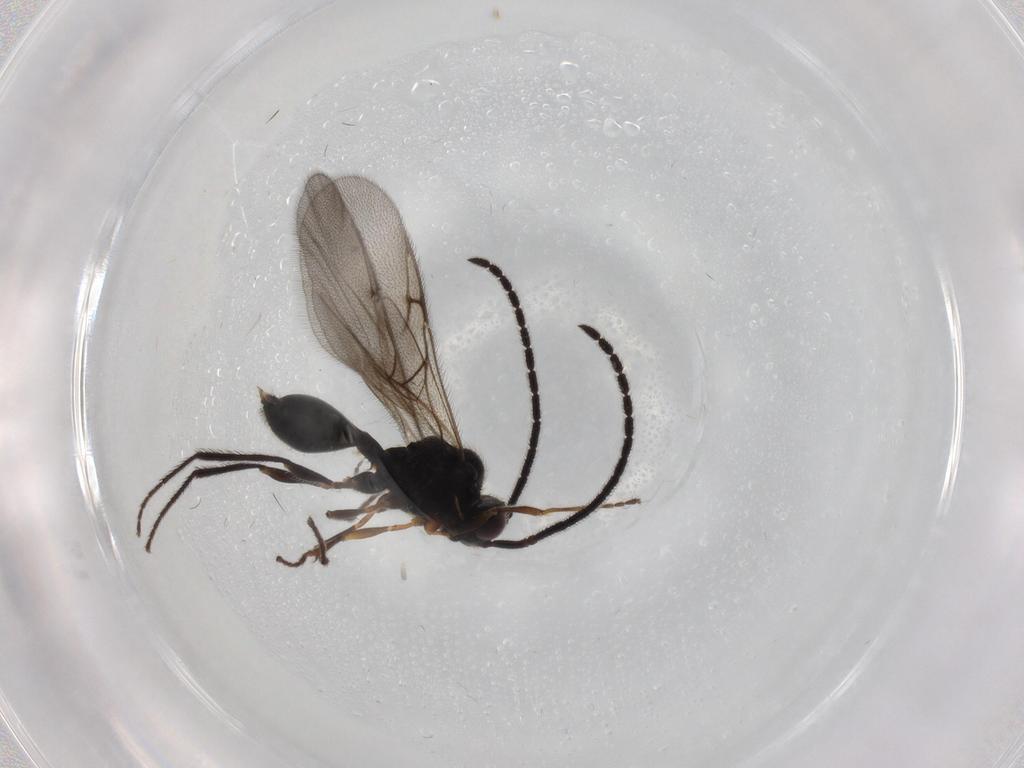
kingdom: Animalia
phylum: Arthropoda
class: Insecta
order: Hymenoptera
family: Diapriidae
